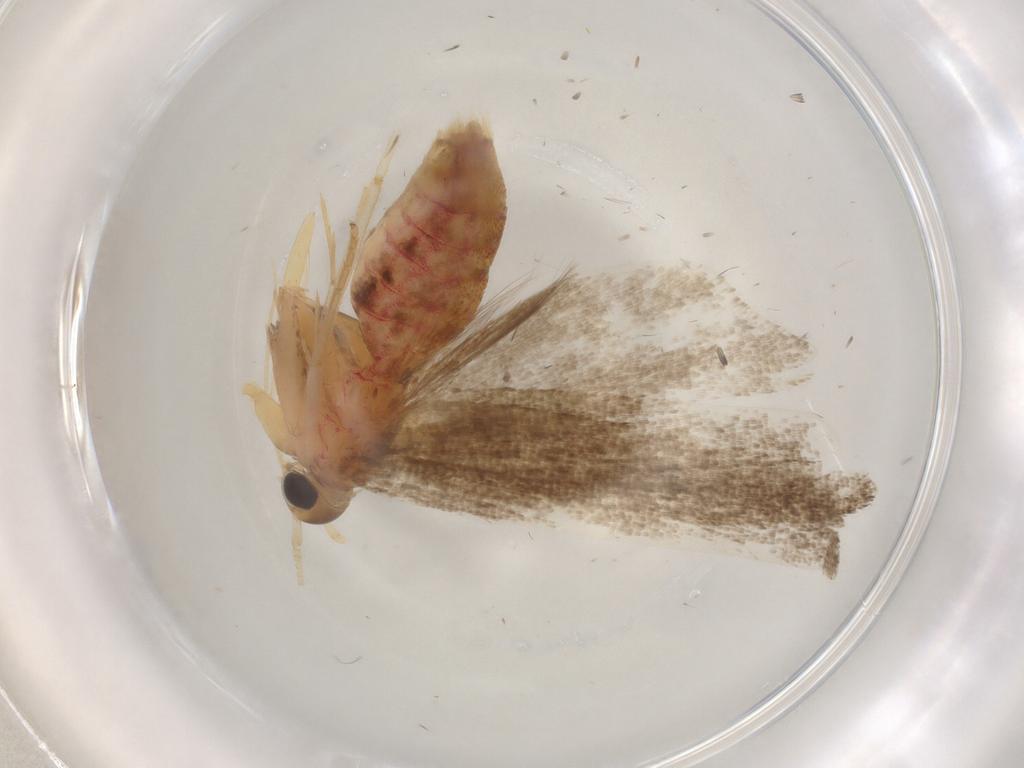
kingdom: Animalia
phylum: Arthropoda
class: Insecta
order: Lepidoptera
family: Lecithoceridae
